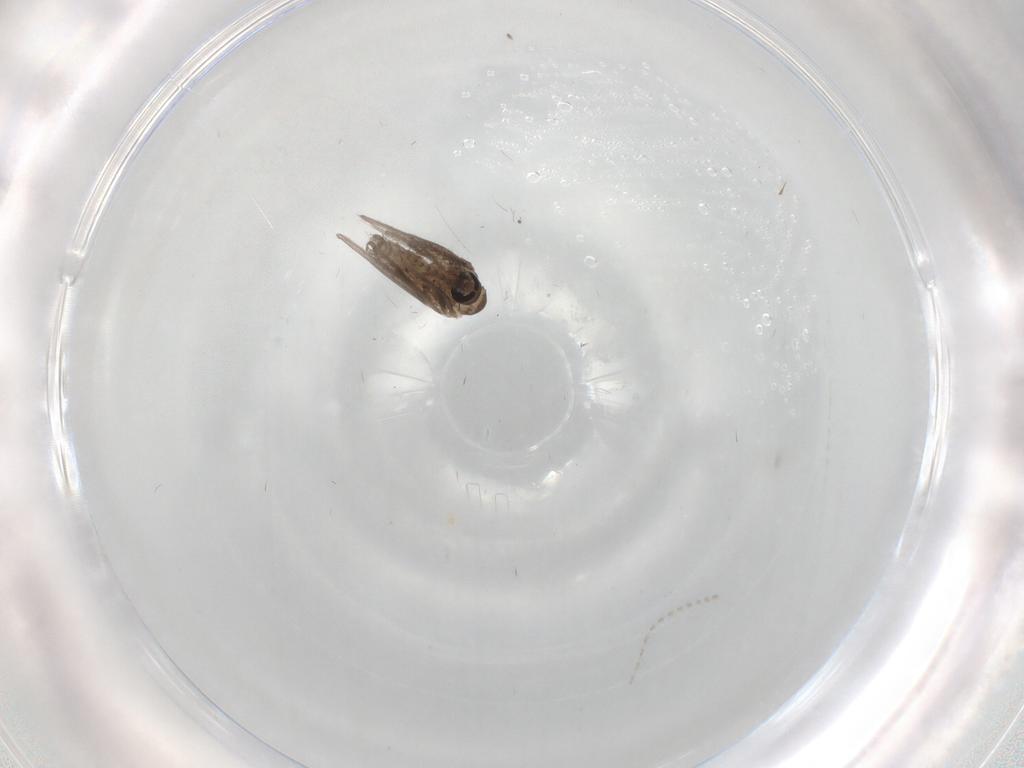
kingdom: Animalia
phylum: Arthropoda
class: Insecta
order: Diptera
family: Psychodidae
